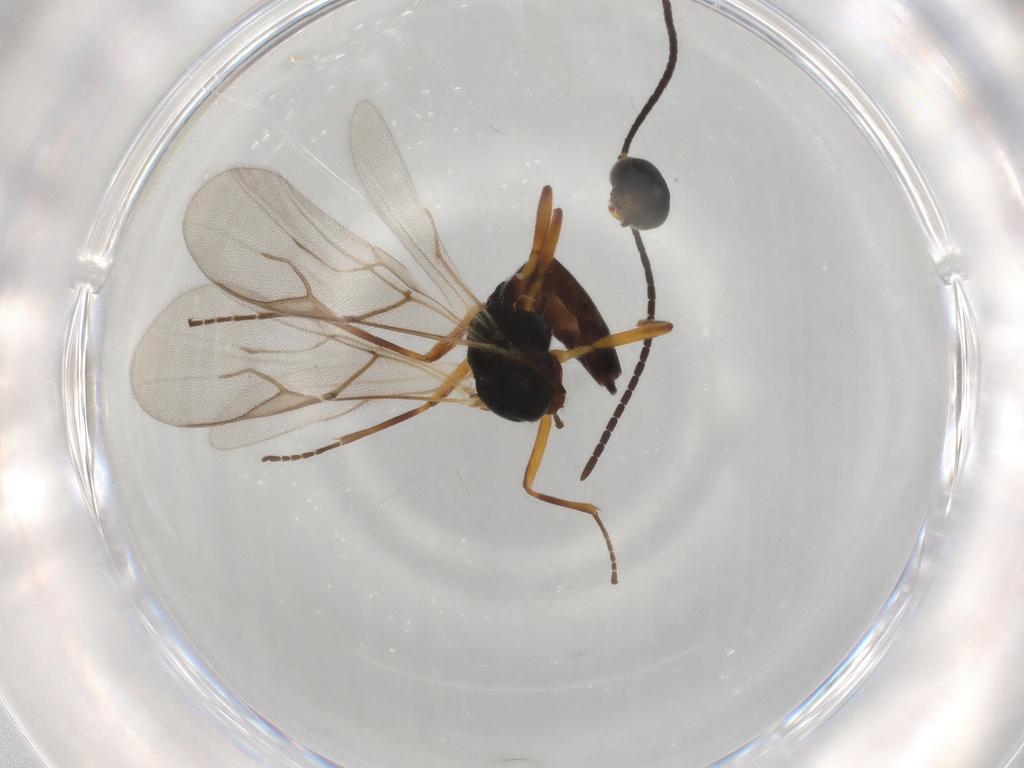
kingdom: Animalia
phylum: Arthropoda
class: Insecta
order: Hymenoptera
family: Braconidae
